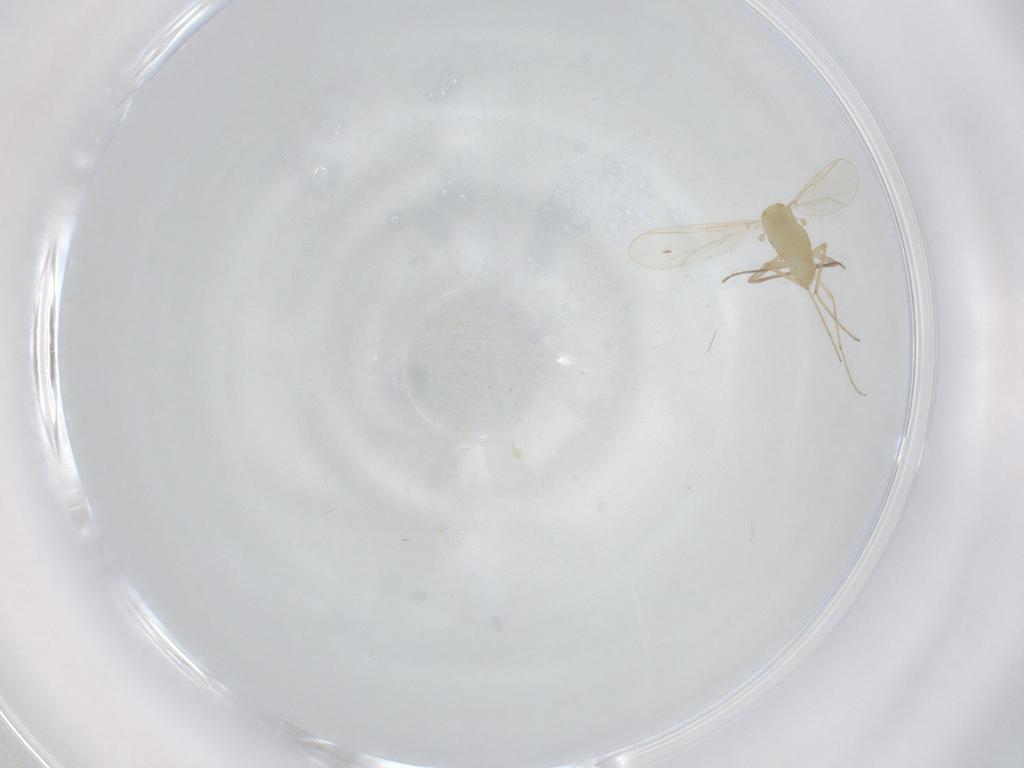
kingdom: Animalia
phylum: Arthropoda
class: Insecta
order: Diptera
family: Chironomidae
